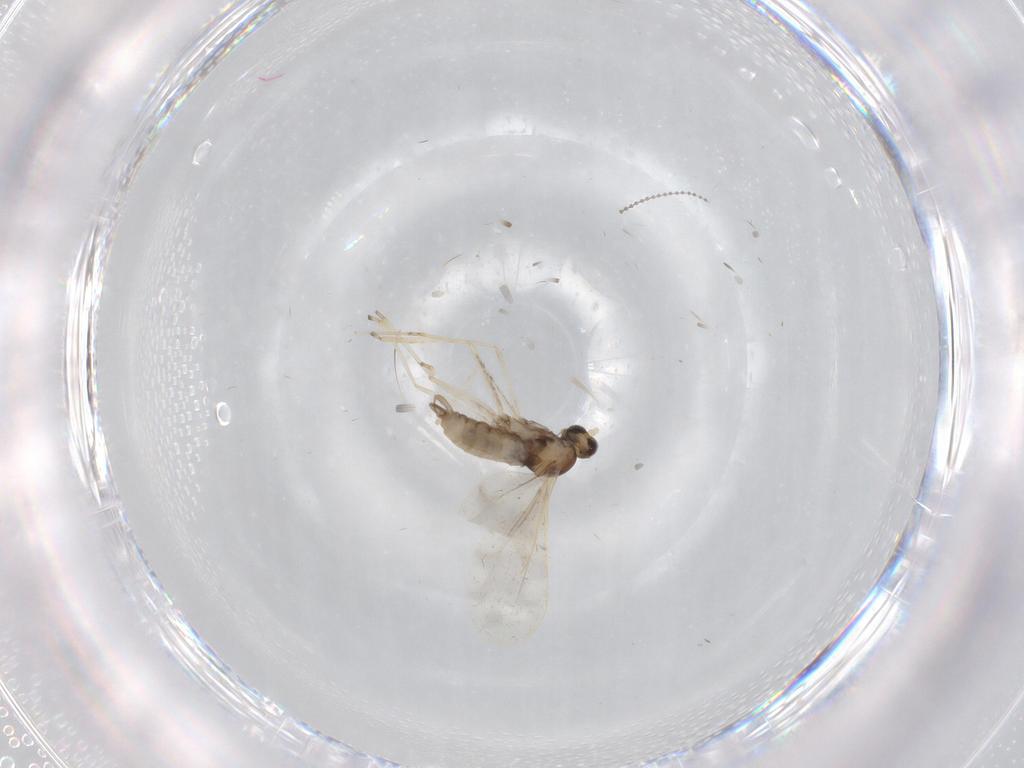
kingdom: Animalia
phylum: Arthropoda
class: Insecta
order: Diptera
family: Cecidomyiidae
